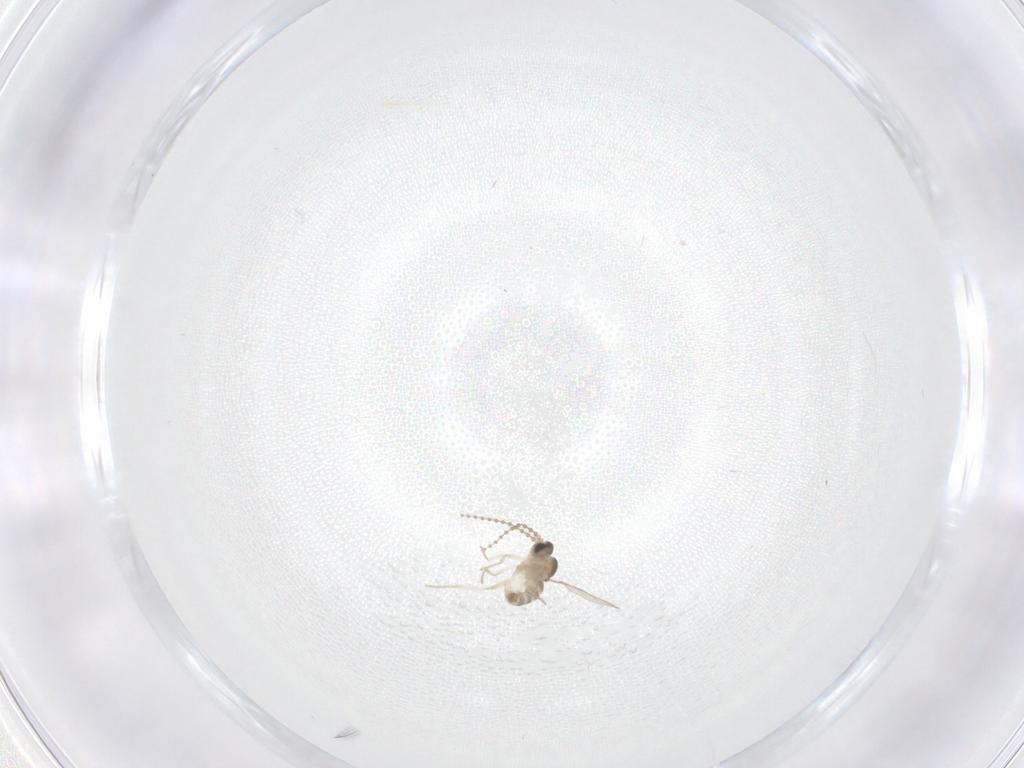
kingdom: Animalia
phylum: Arthropoda
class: Insecta
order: Diptera
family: Cecidomyiidae
